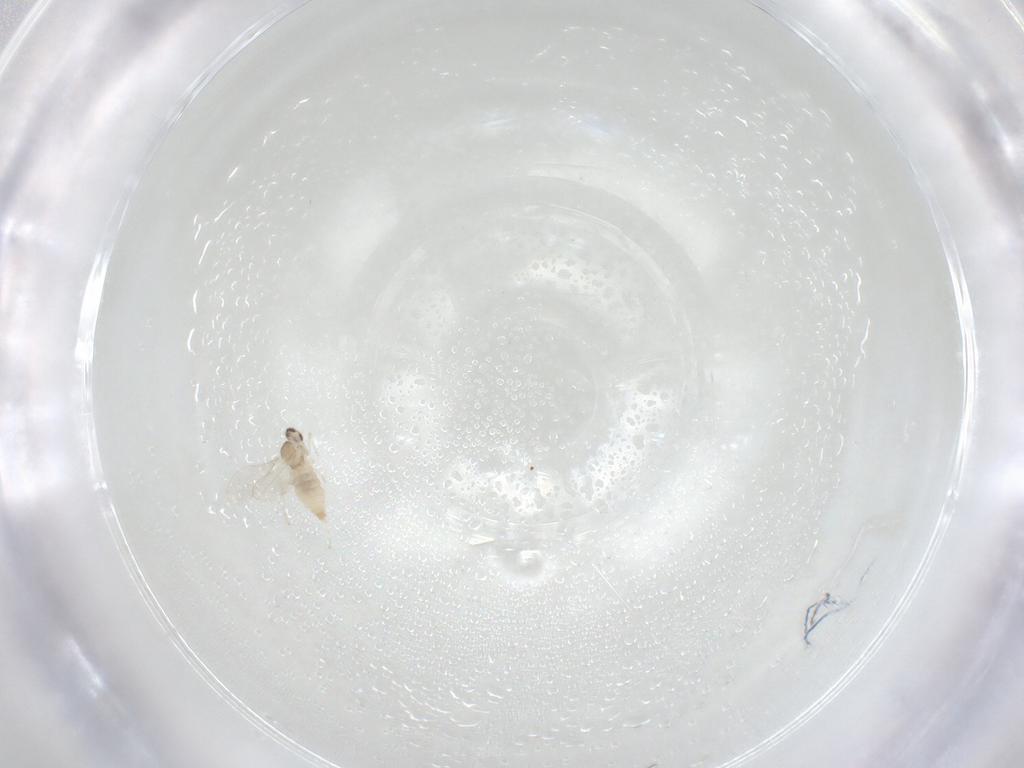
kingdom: Animalia
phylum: Arthropoda
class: Insecta
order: Diptera
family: Cecidomyiidae
